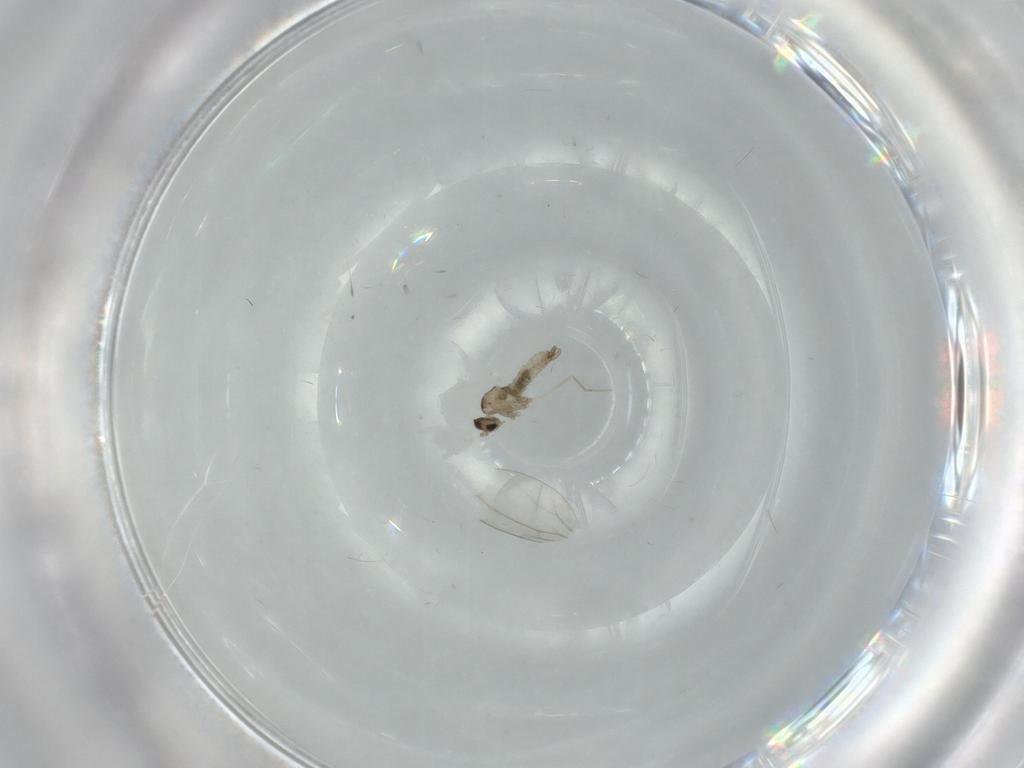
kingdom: Animalia
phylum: Arthropoda
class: Insecta
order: Diptera
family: Cecidomyiidae
